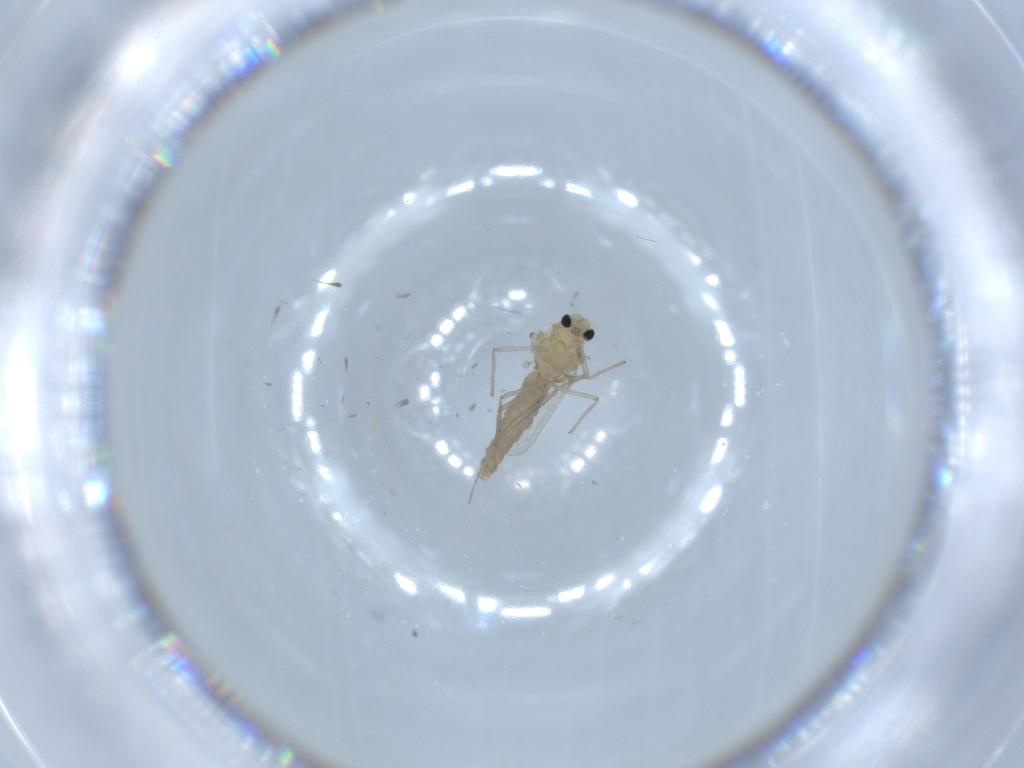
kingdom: Animalia
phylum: Arthropoda
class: Insecta
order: Diptera
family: Chironomidae
